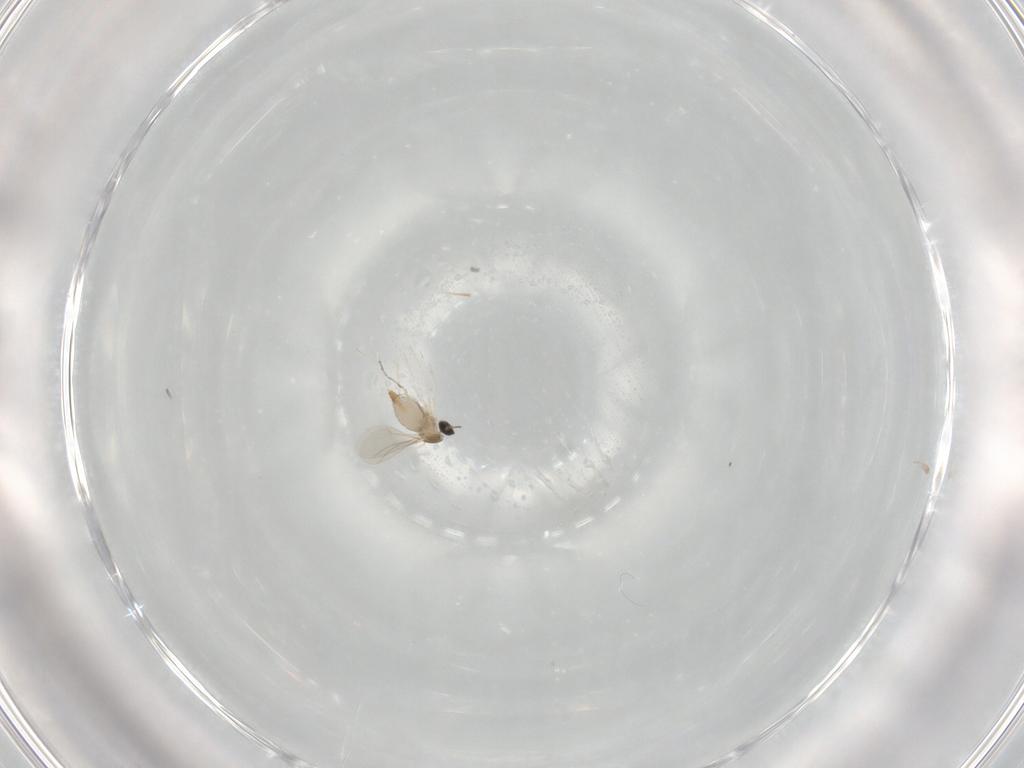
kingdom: Animalia
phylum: Arthropoda
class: Insecta
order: Diptera
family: Cecidomyiidae
